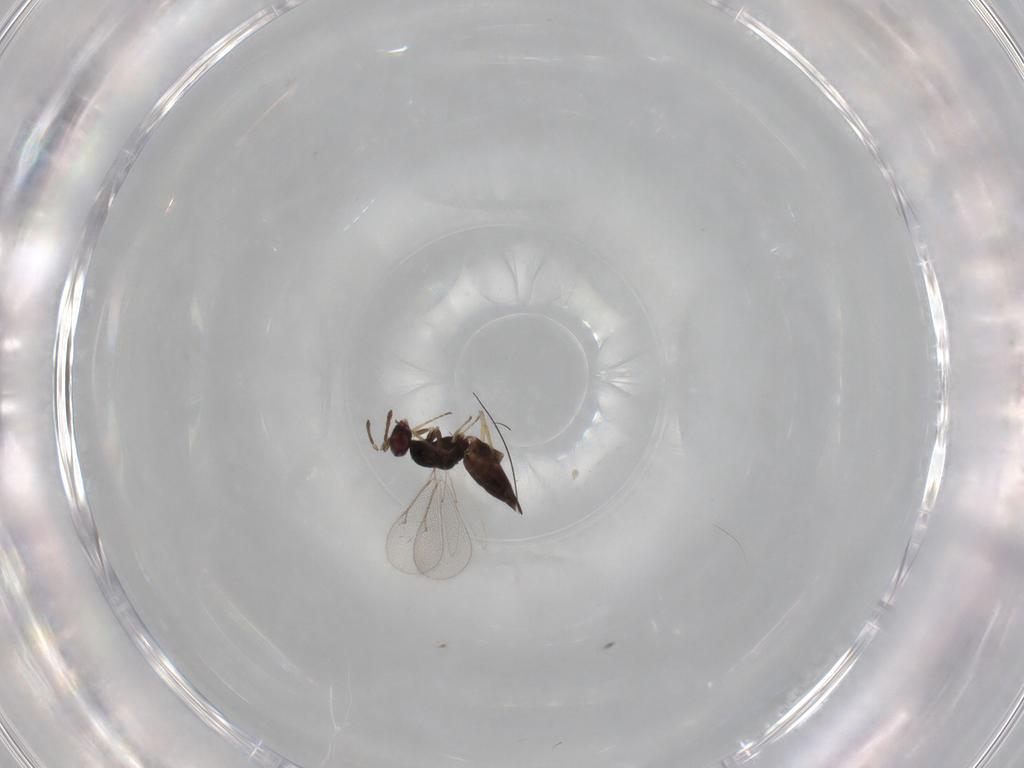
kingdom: Animalia
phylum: Arthropoda
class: Insecta
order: Hymenoptera
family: Eulophidae
